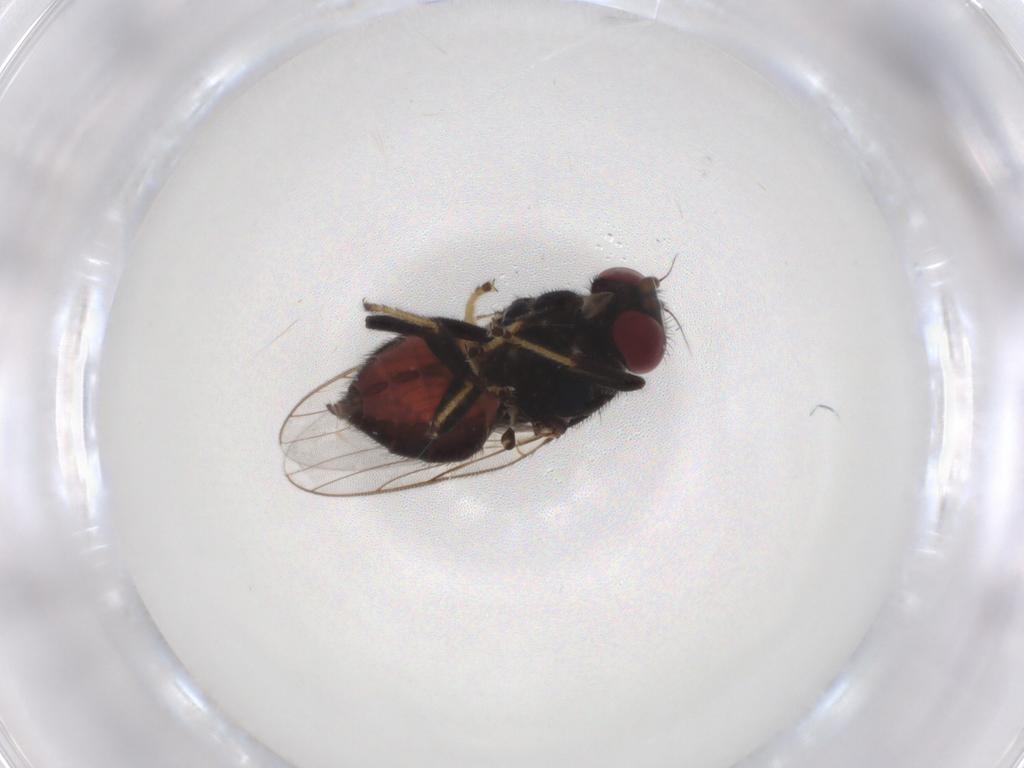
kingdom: Animalia
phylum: Arthropoda
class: Insecta
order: Diptera
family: Chloropidae
